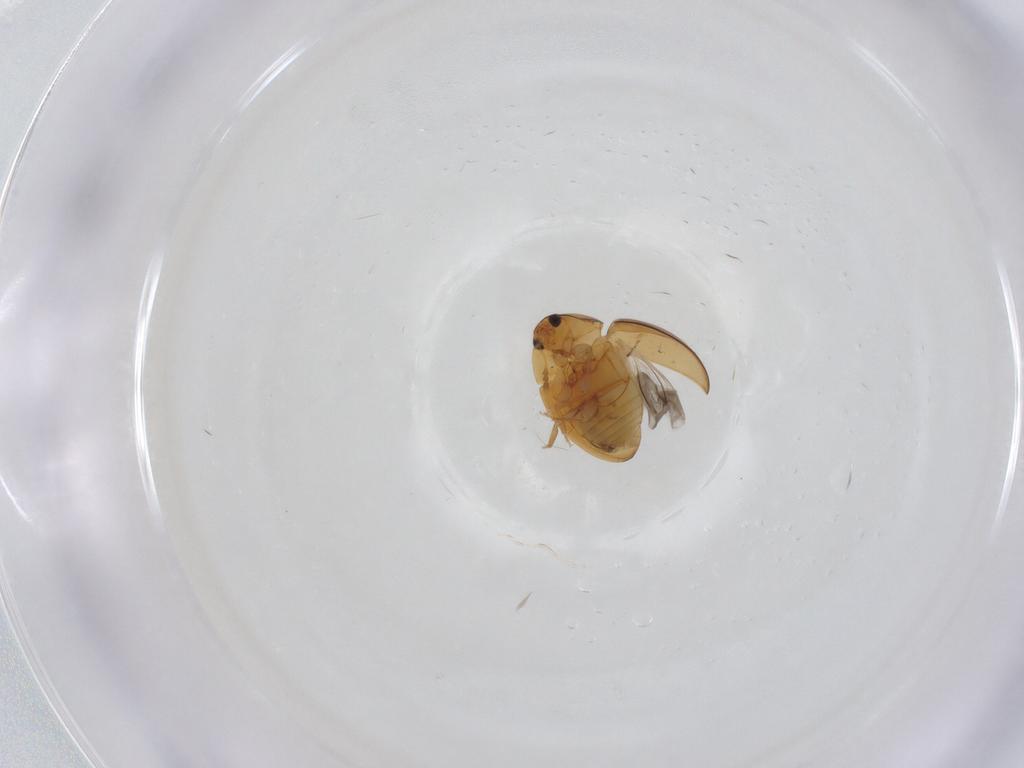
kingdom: Animalia
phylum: Arthropoda
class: Insecta
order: Coleoptera
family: Phalacridae
